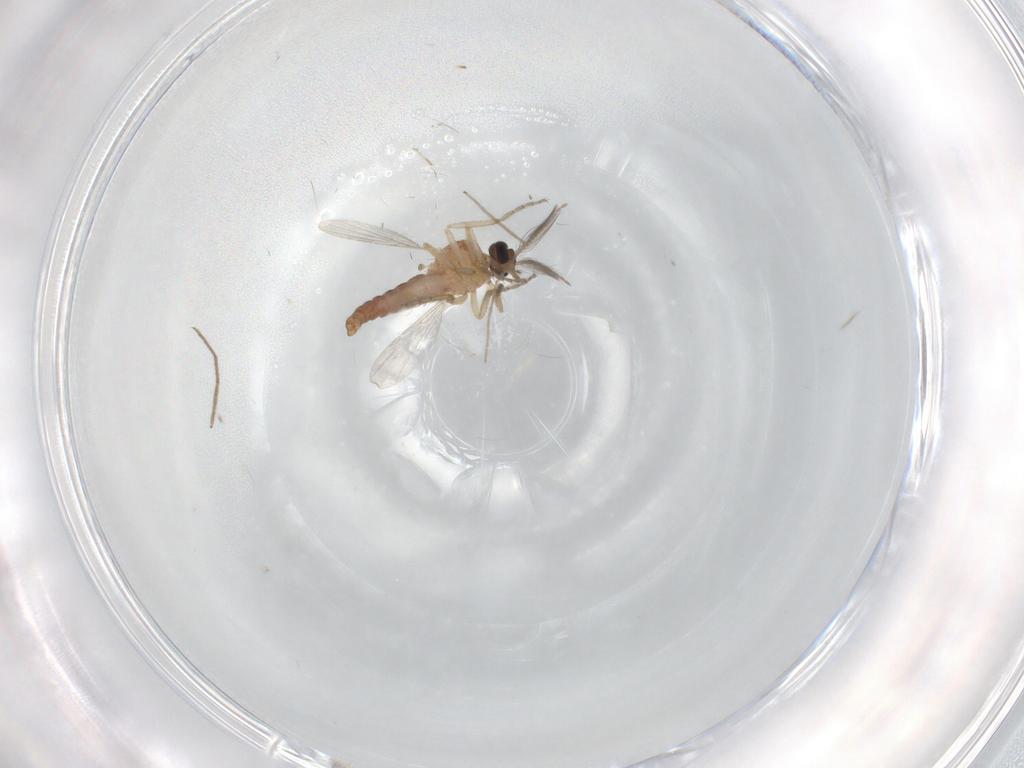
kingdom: Animalia
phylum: Arthropoda
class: Insecta
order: Diptera
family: Ceratopogonidae
